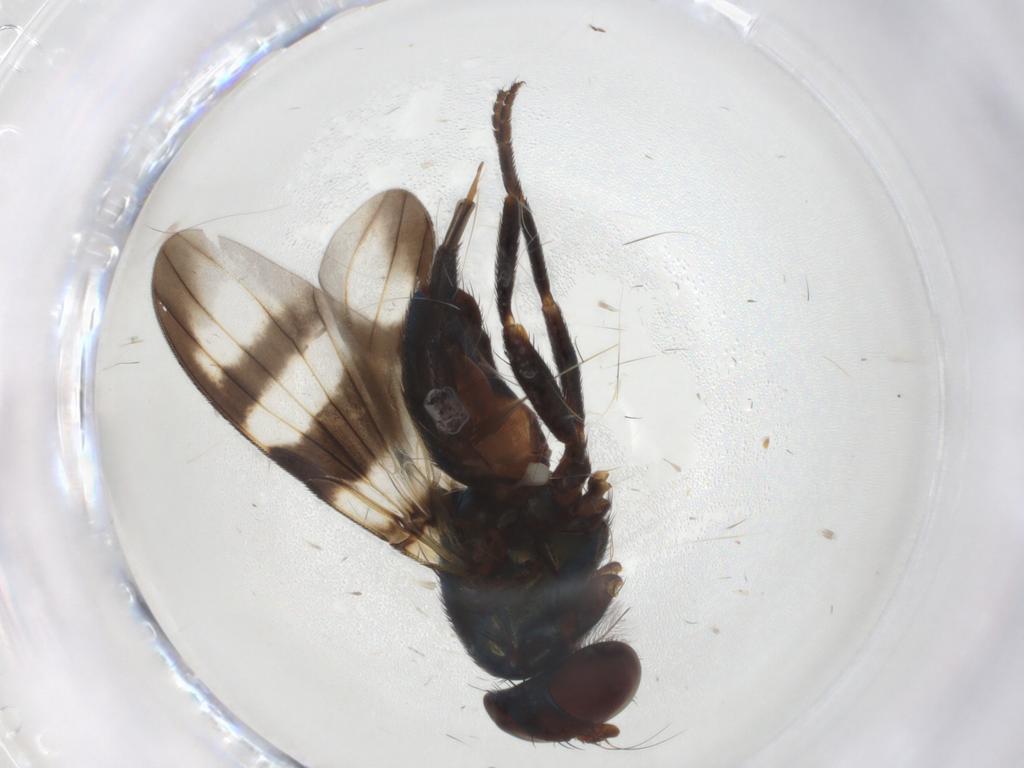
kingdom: Animalia
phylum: Arthropoda
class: Insecta
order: Diptera
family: Ulidiidae
